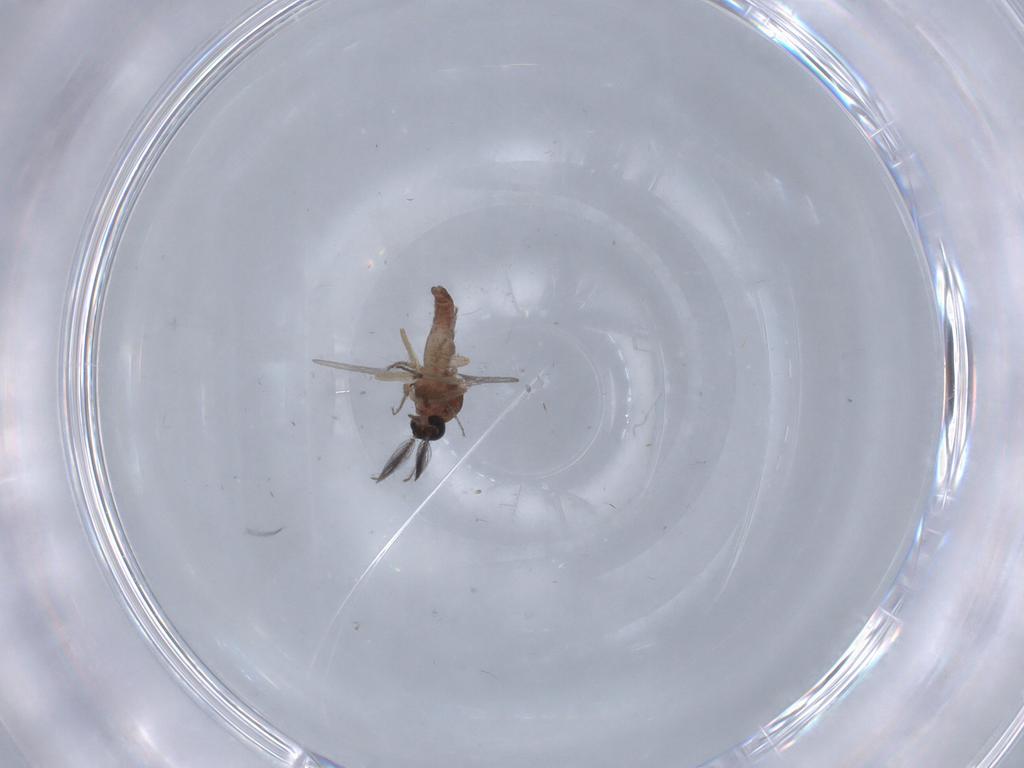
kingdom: Animalia
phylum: Arthropoda
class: Insecta
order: Diptera
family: Ceratopogonidae
